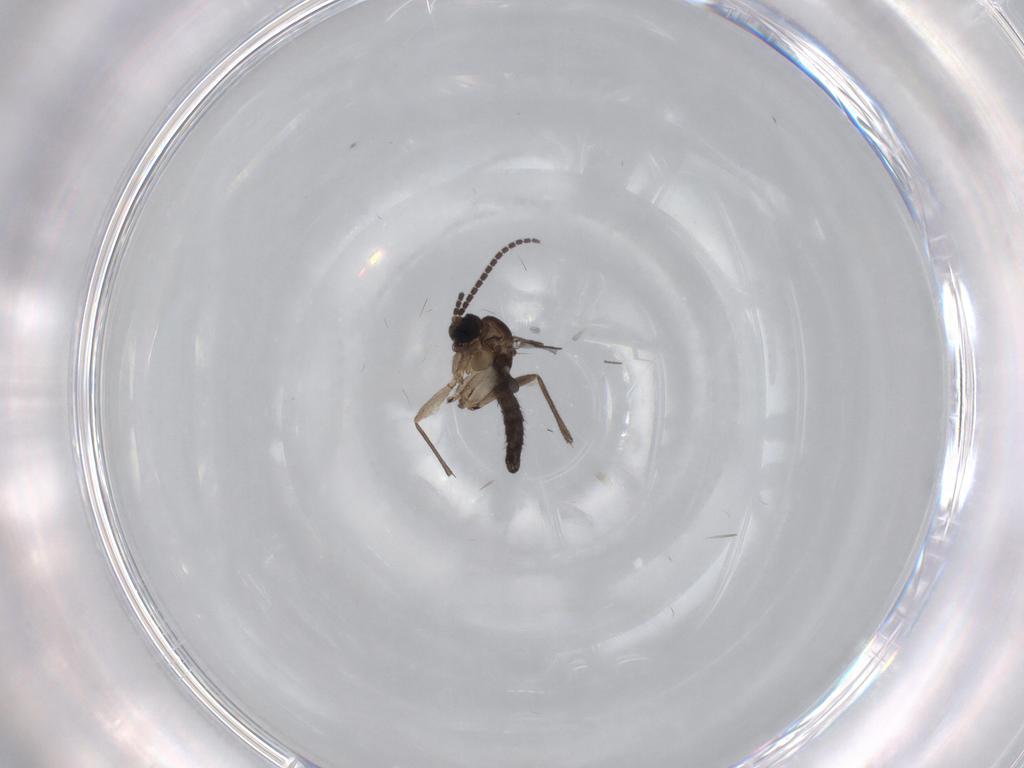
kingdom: Animalia
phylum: Arthropoda
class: Insecta
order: Diptera
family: Sciaridae
